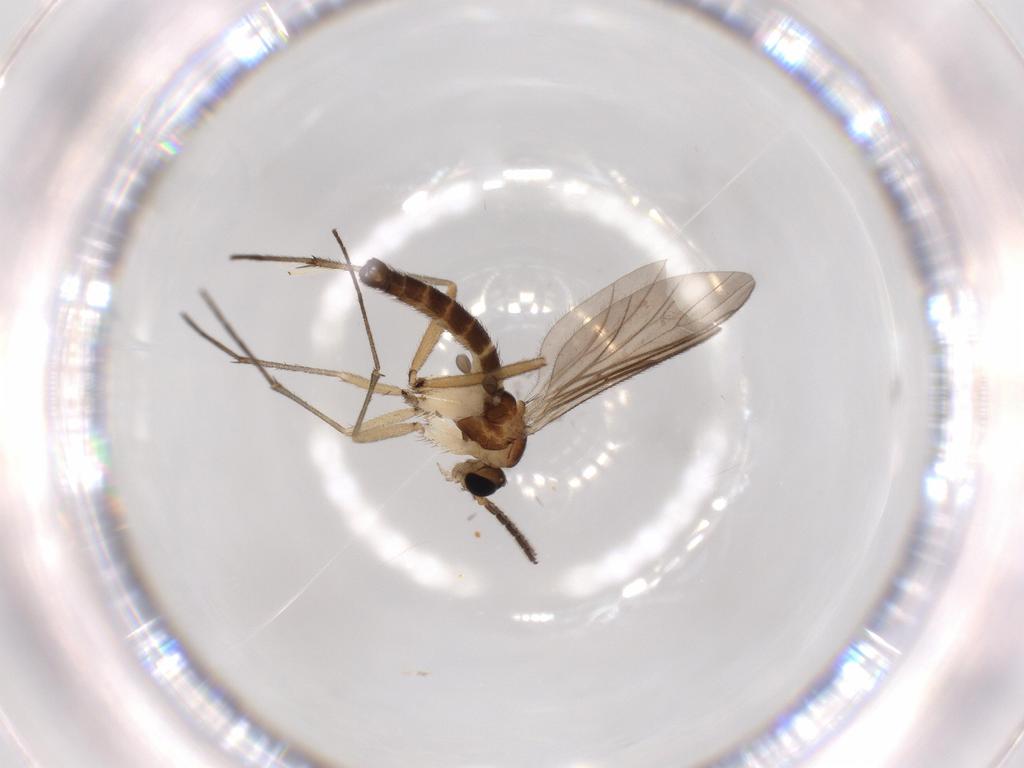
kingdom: Animalia
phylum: Arthropoda
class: Insecta
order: Diptera
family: Sciaridae
